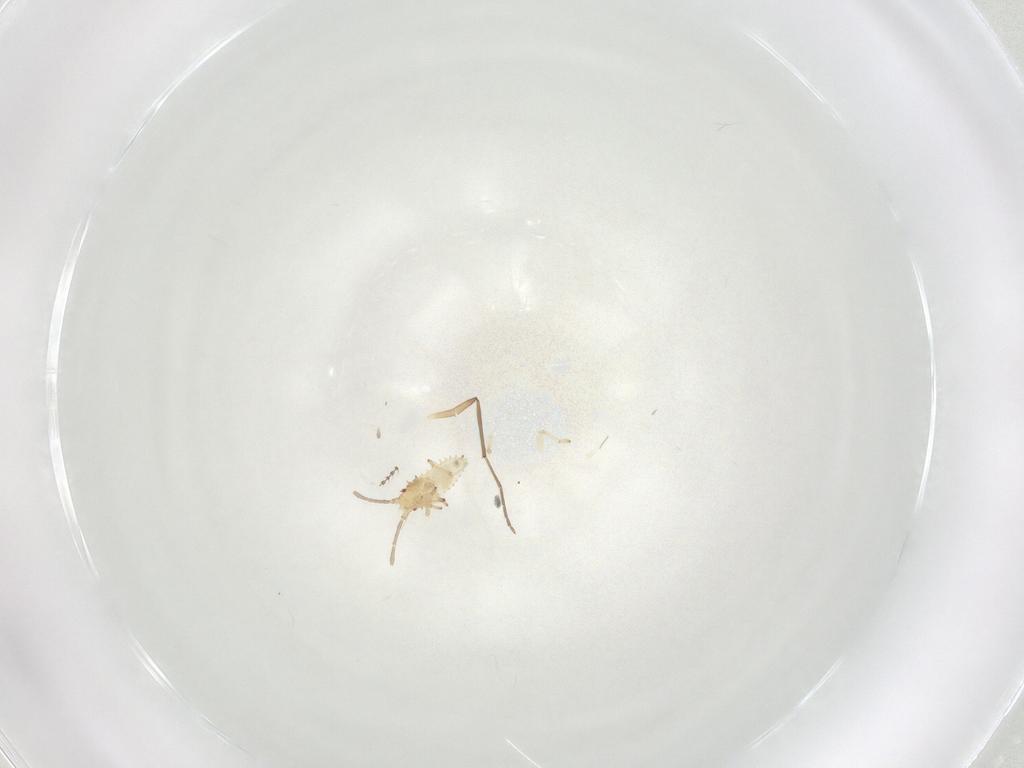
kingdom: Animalia
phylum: Arthropoda
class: Insecta
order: Hemiptera
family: Tingidae
